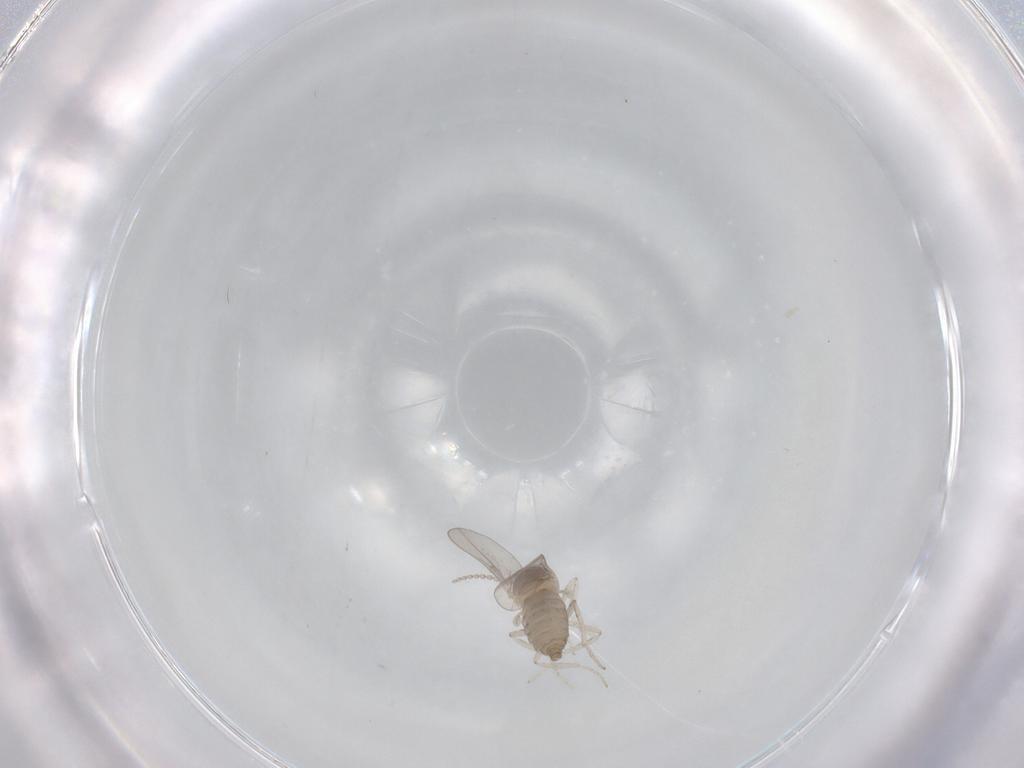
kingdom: Animalia
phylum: Arthropoda
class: Insecta
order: Diptera
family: Cecidomyiidae
